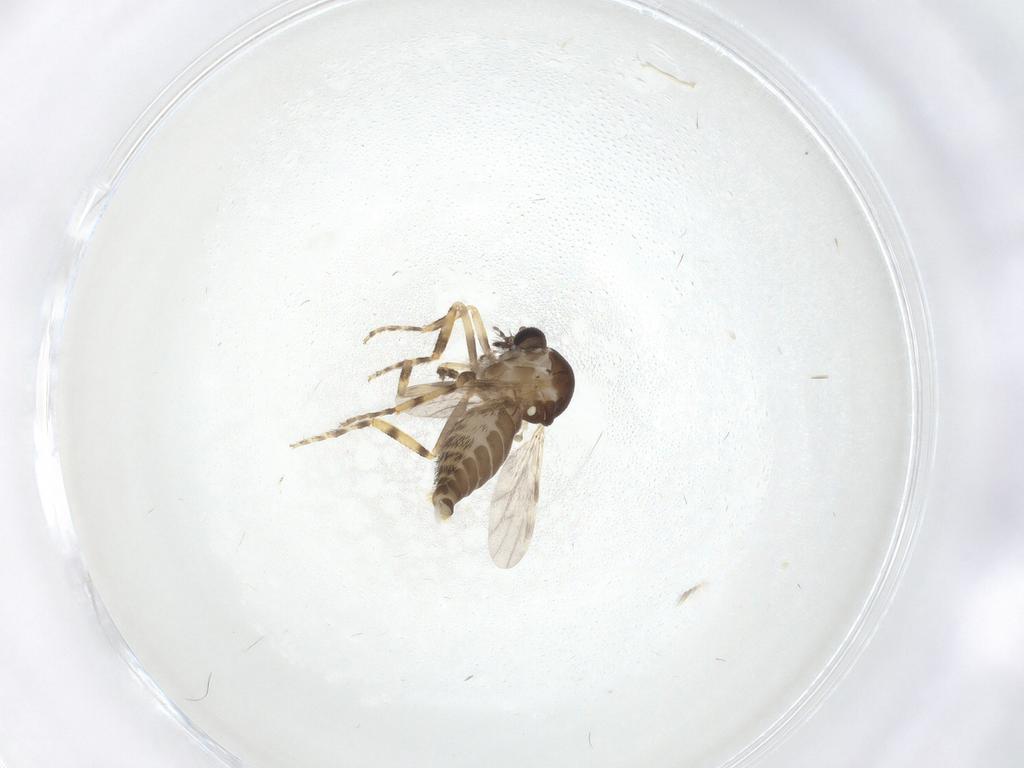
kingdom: Animalia
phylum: Arthropoda
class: Insecta
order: Diptera
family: Ceratopogonidae
